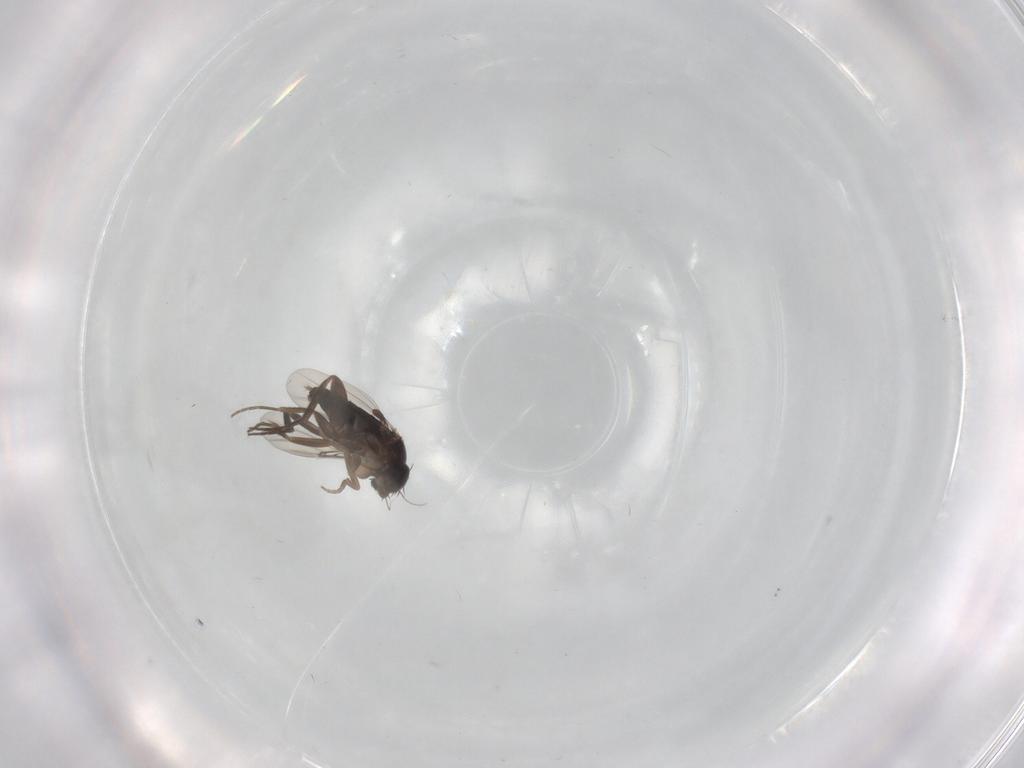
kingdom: Animalia
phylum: Arthropoda
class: Insecta
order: Diptera
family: Phoridae
